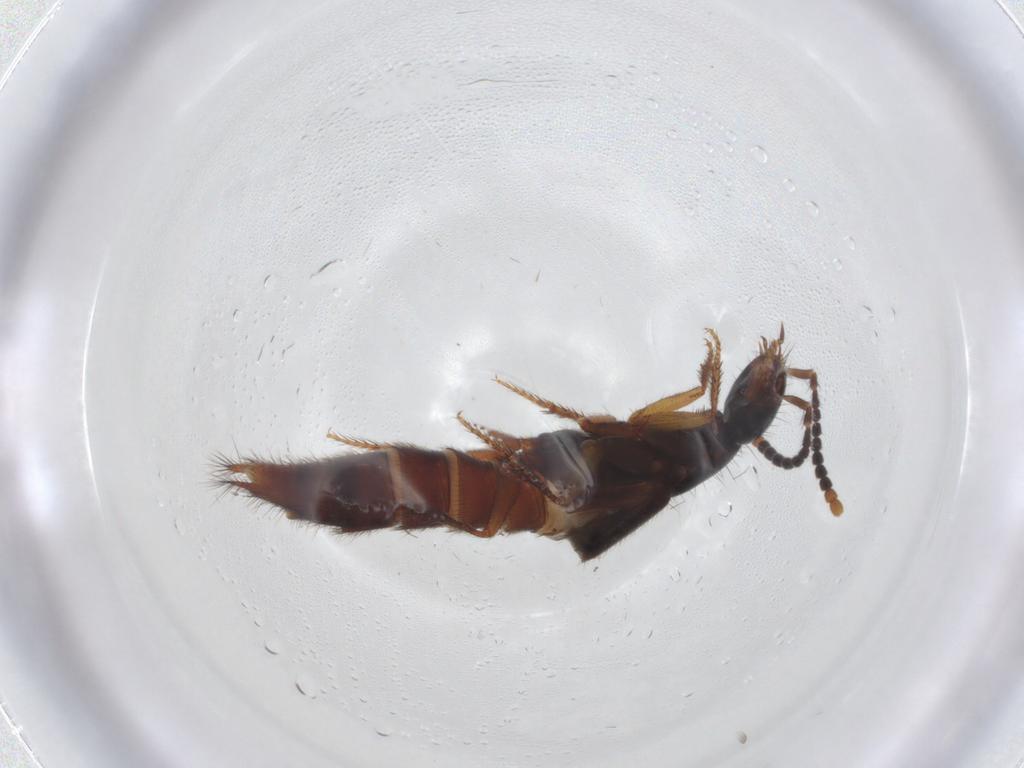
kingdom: Animalia
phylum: Arthropoda
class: Insecta
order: Coleoptera
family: Staphylinidae
